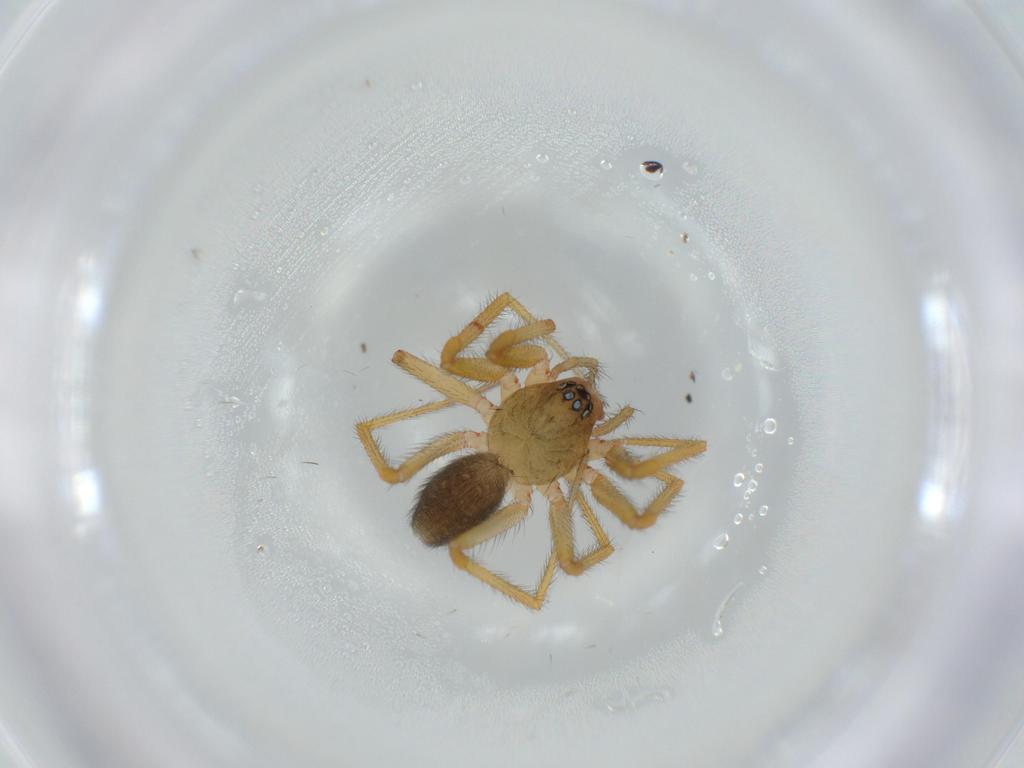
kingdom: Animalia
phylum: Arthropoda
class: Arachnida
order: Araneae
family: Linyphiidae
